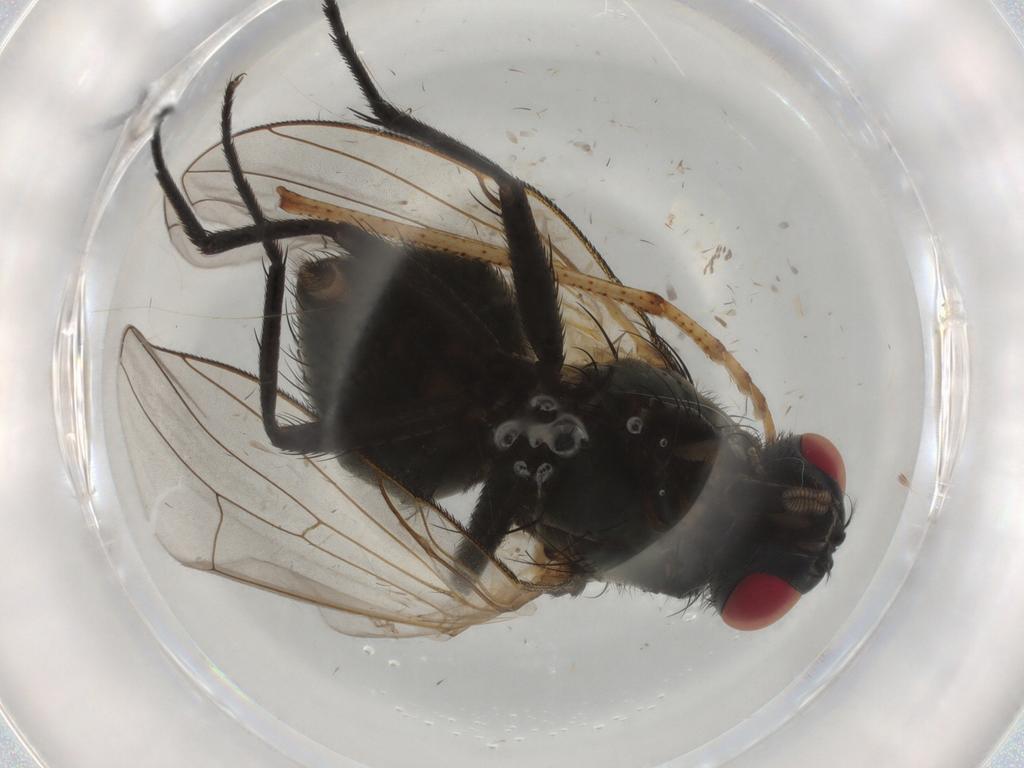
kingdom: Animalia
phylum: Arthropoda
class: Insecta
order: Diptera
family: Muscidae
